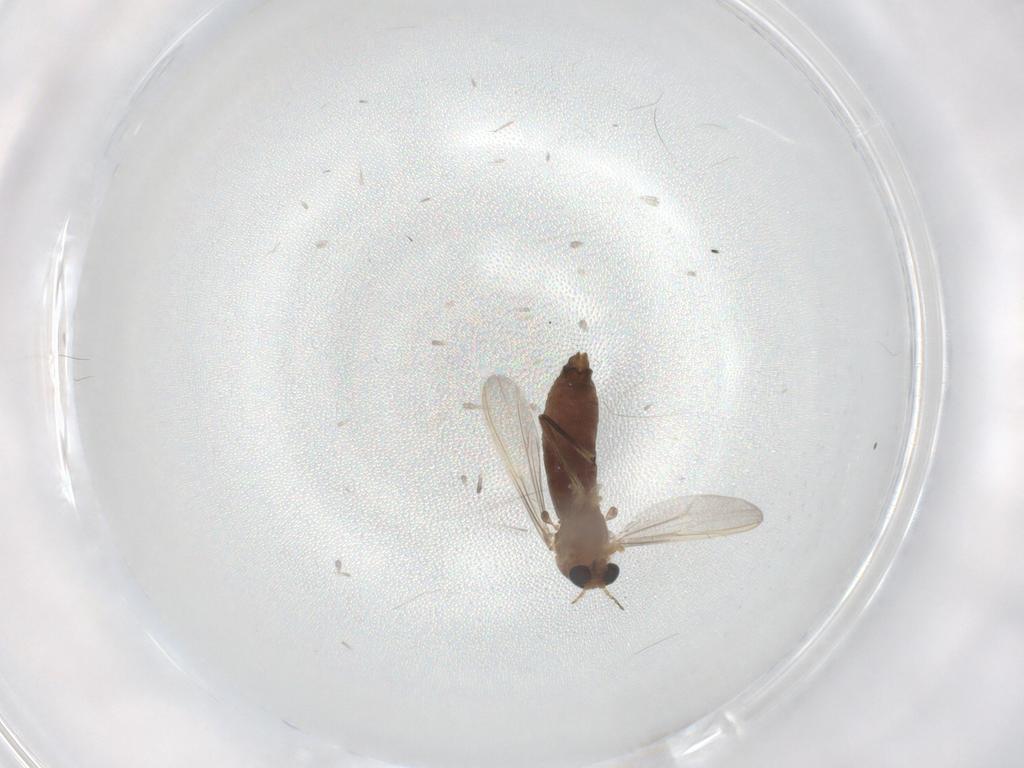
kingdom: Animalia
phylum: Arthropoda
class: Insecta
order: Diptera
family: Chironomidae
